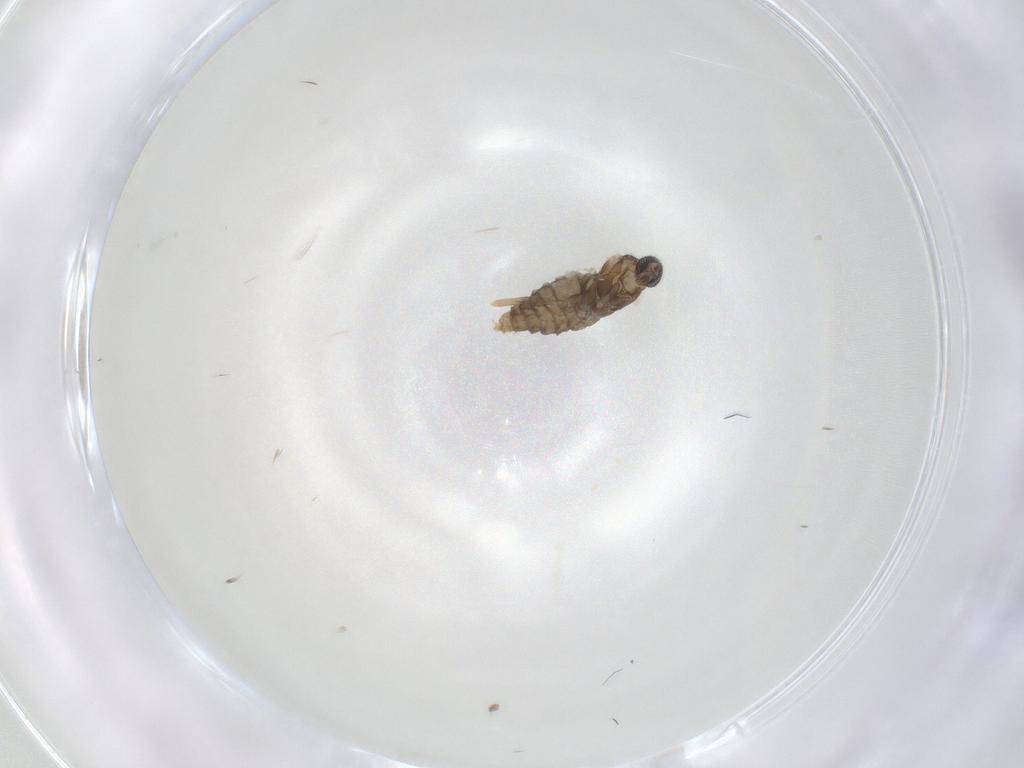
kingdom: Animalia
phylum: Arthropoda
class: Insecta
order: Diptera
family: Cecidomyiidae
